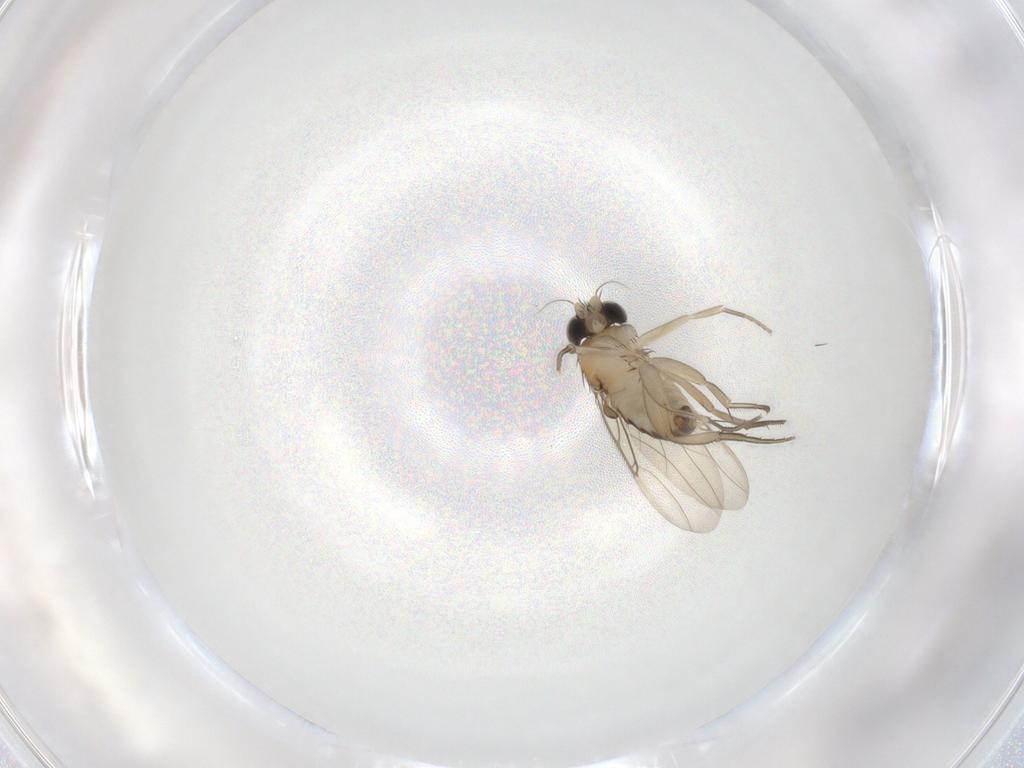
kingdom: Animalia
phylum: Arthropoda
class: Insecta
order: Diptera
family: Phoridae
